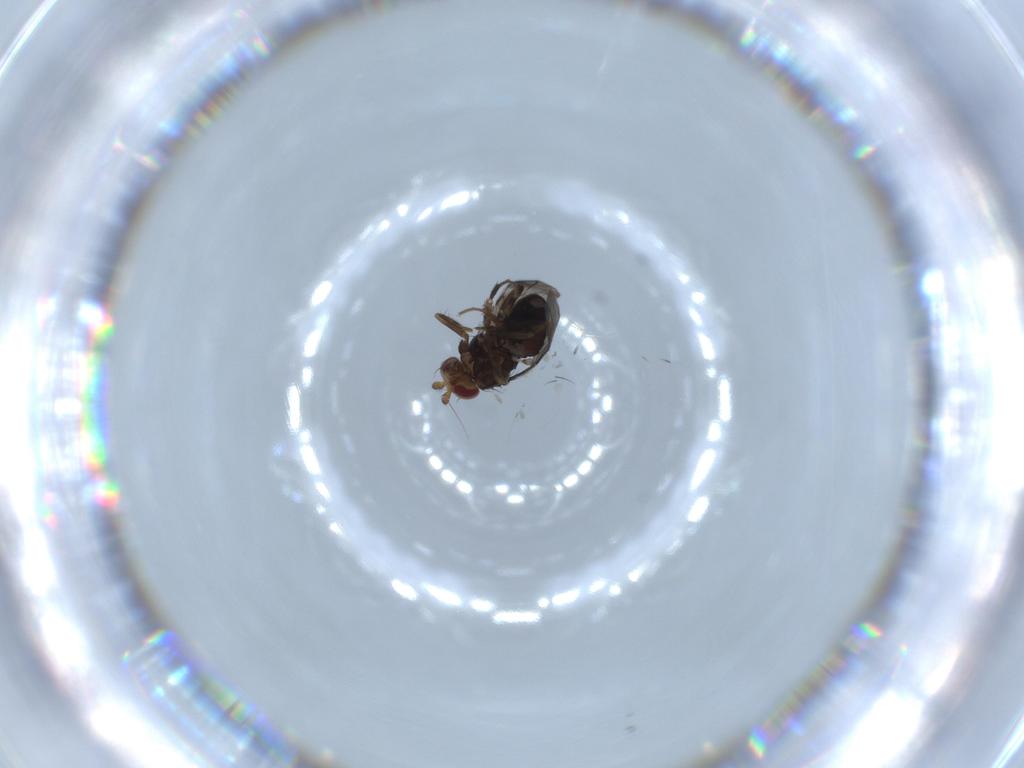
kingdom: Animalia
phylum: Arthropoda
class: Insecta
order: Diptera
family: Sphaeroceridae
